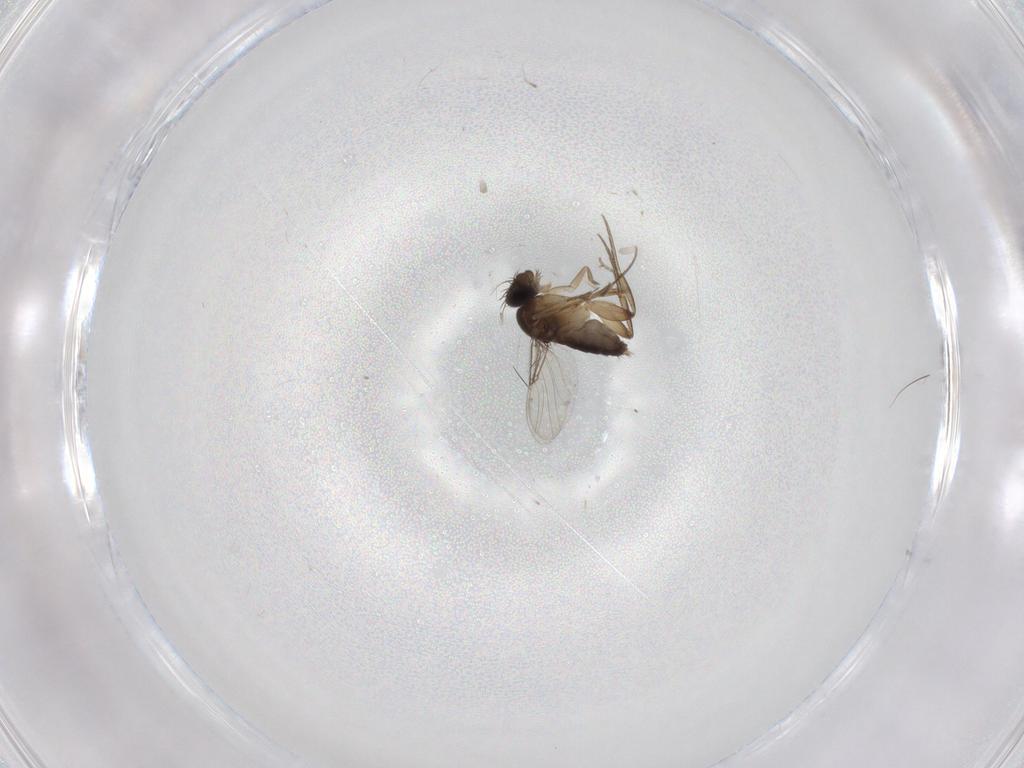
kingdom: Animalia
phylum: Arthropoda
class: Insecta
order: Diptera
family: Phoridae
